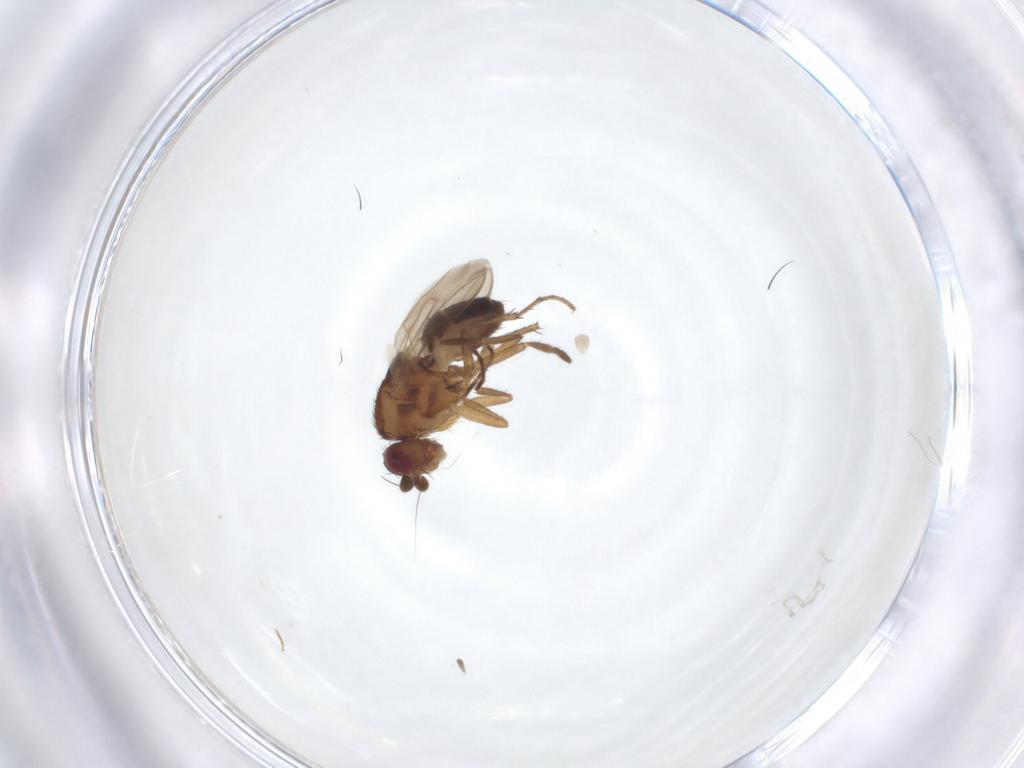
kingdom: Animalia
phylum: Arthropoda
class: Insecta
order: Diptera
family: Sphaeroceridae
